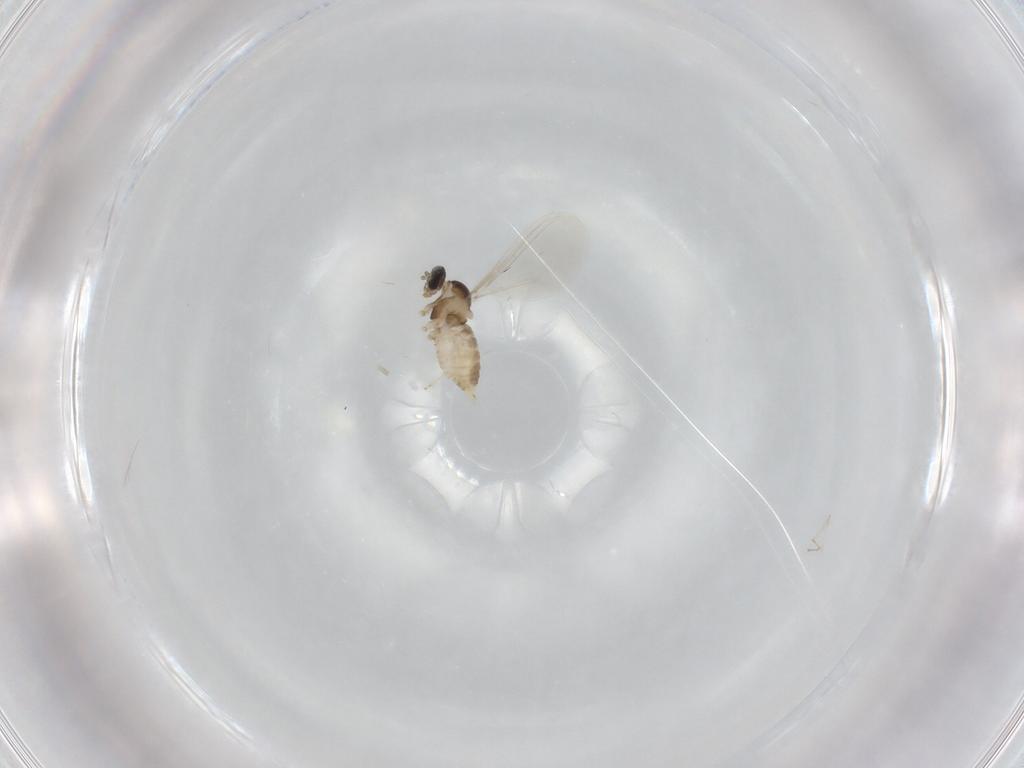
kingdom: Animalia
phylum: Arthropoda
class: Insecta
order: Diptera
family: Cecidomyiidae
